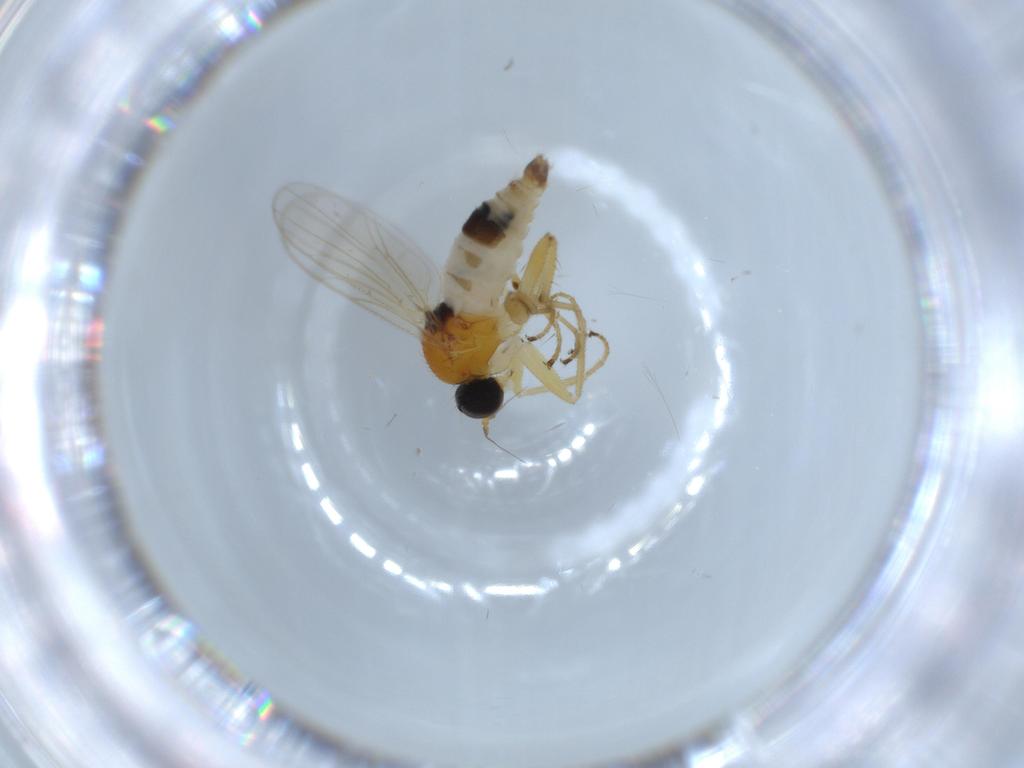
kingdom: Animalia
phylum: Arthropoda
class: Insecta
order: Diptera
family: Hybotidae
